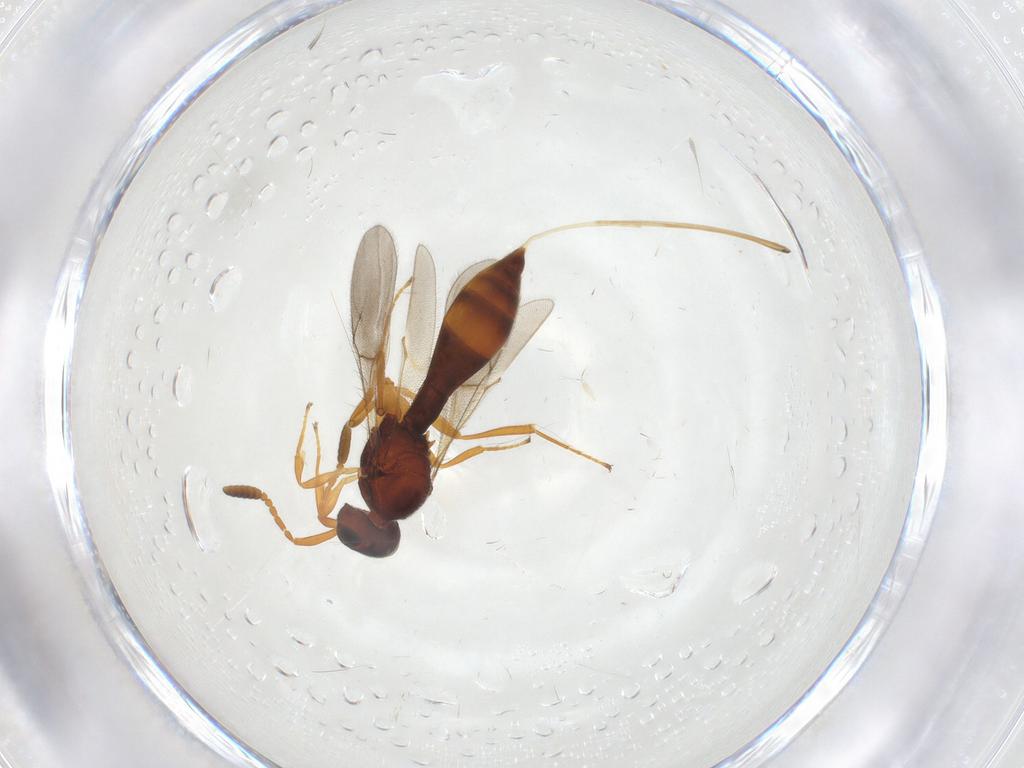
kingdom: Animalia
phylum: Arthropoda
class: Insecta
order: Hymenoptera
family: Scelionidae
